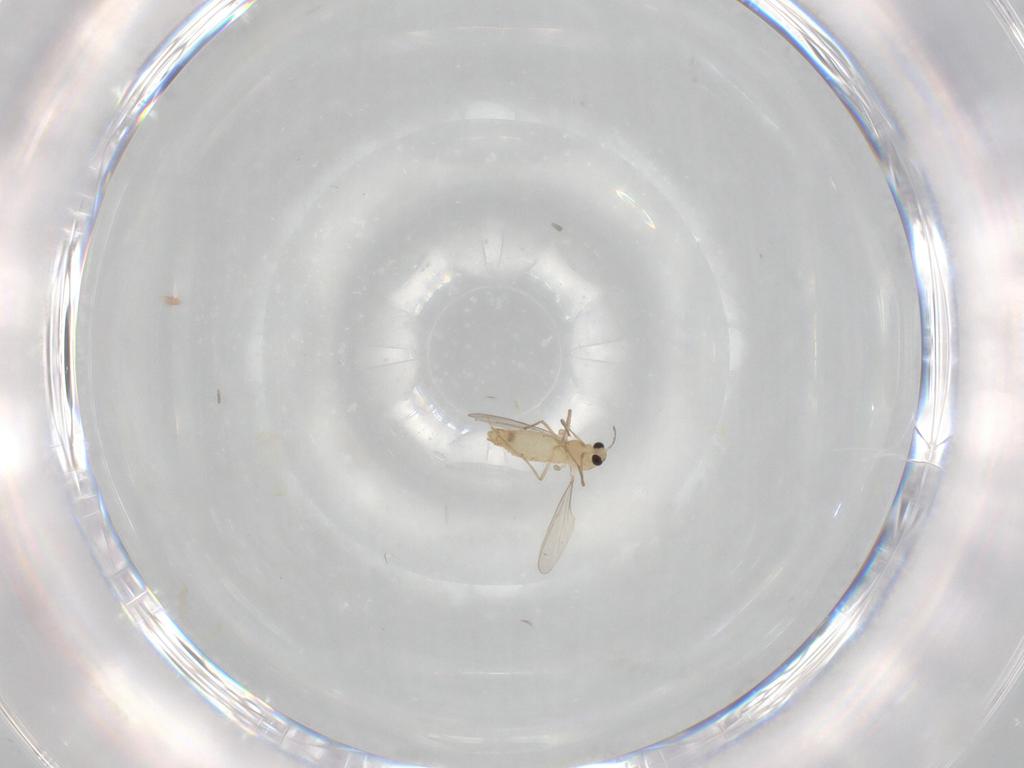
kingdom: Animalia
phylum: Arthropoda
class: Insecta
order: Diptera
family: Chironomidae
